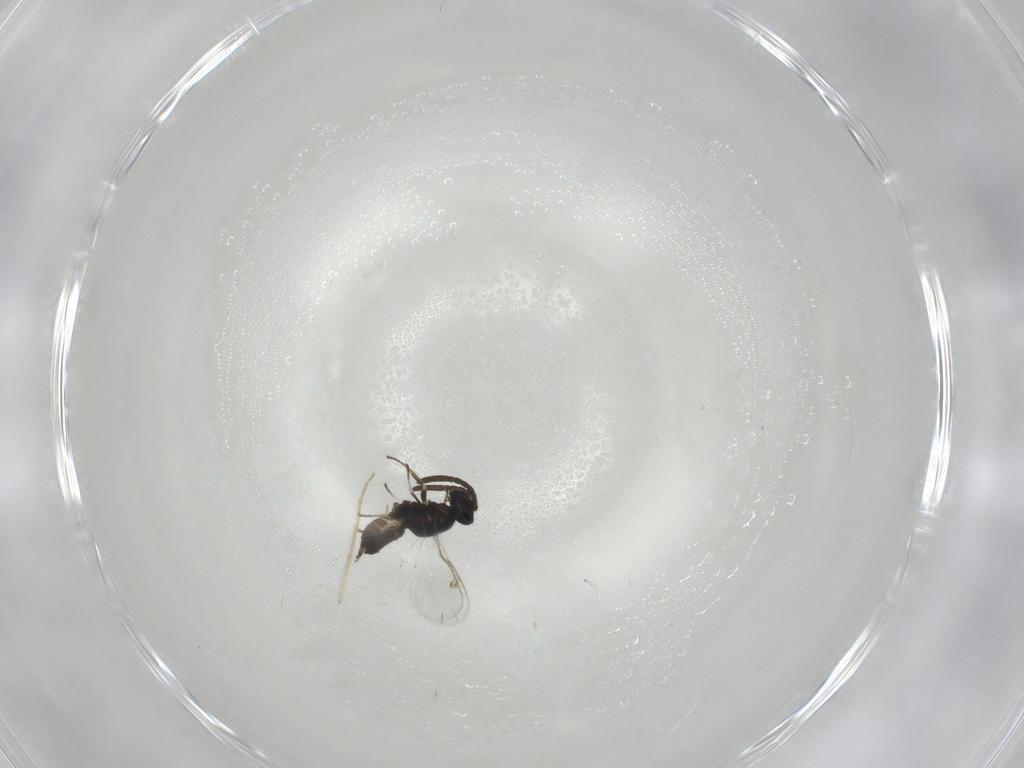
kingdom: Animalia
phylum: Arthropoda
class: Insecta
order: Hymenoptera
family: Eupelmidae
